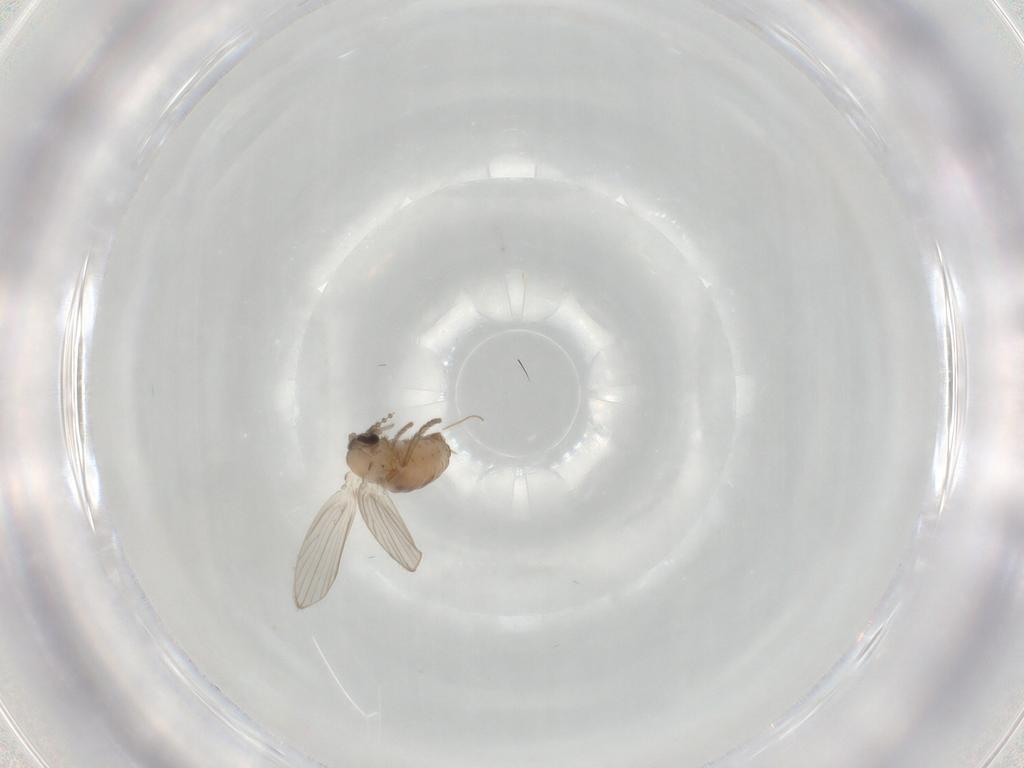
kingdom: Animalia
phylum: Arthropoda
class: Insecta
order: Diptera
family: Psychodidae
